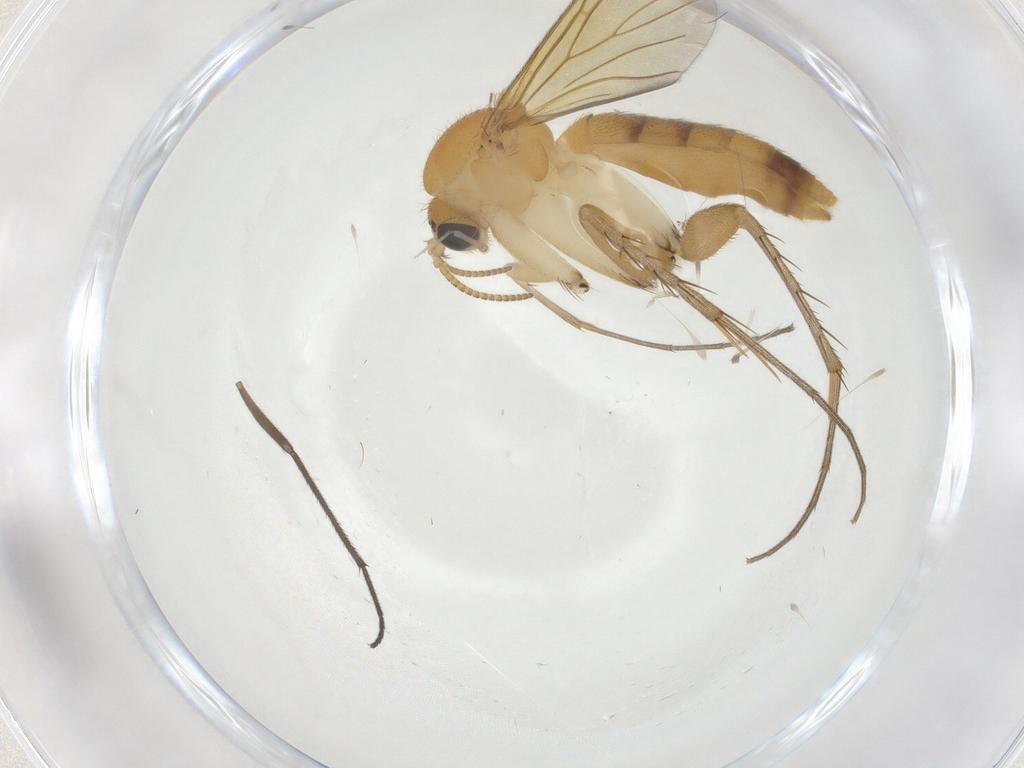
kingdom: Animalia
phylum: Arthropoda
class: Insecta
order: Diptera
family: Mycetophilidae
